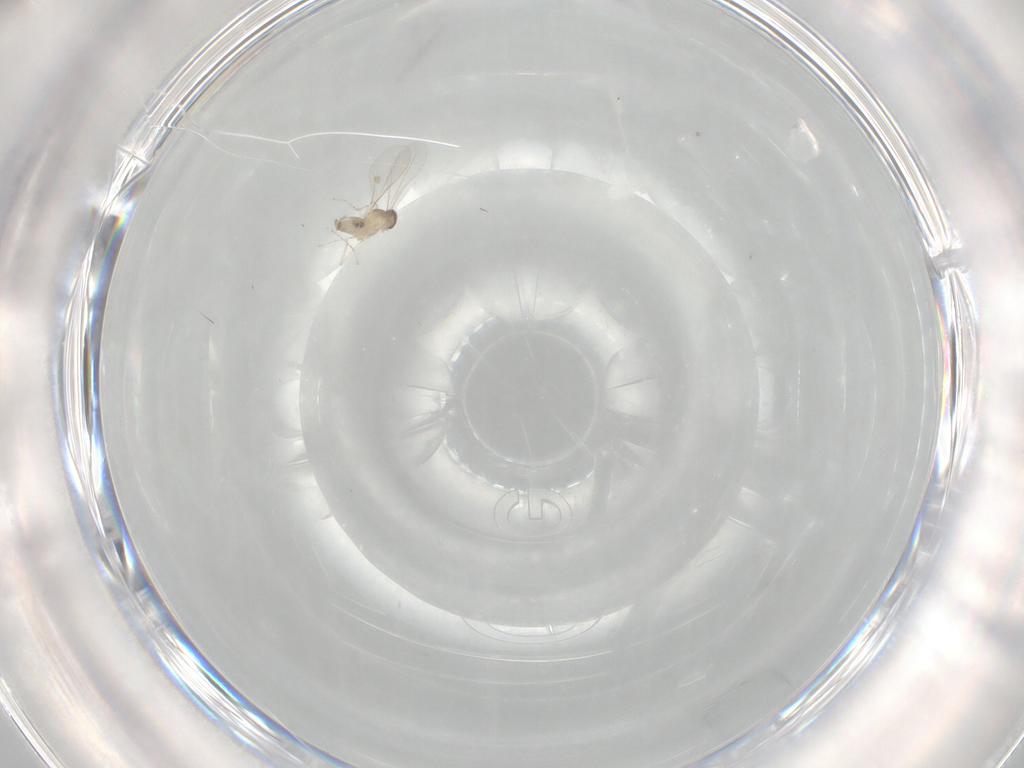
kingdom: Animalia
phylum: Arthropoda
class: Insecta
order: Diptera
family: Cecidomyiidae
